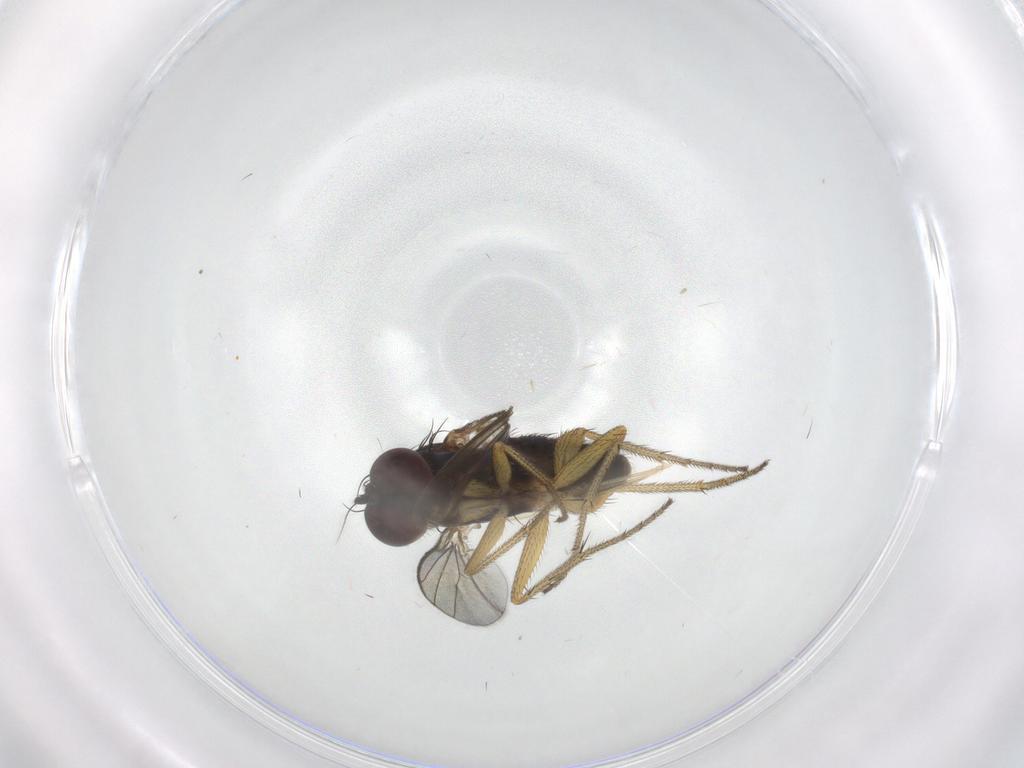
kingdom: Animalia
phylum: Arthropoda
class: Insecta
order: Diptera
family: Dolichopodidae
